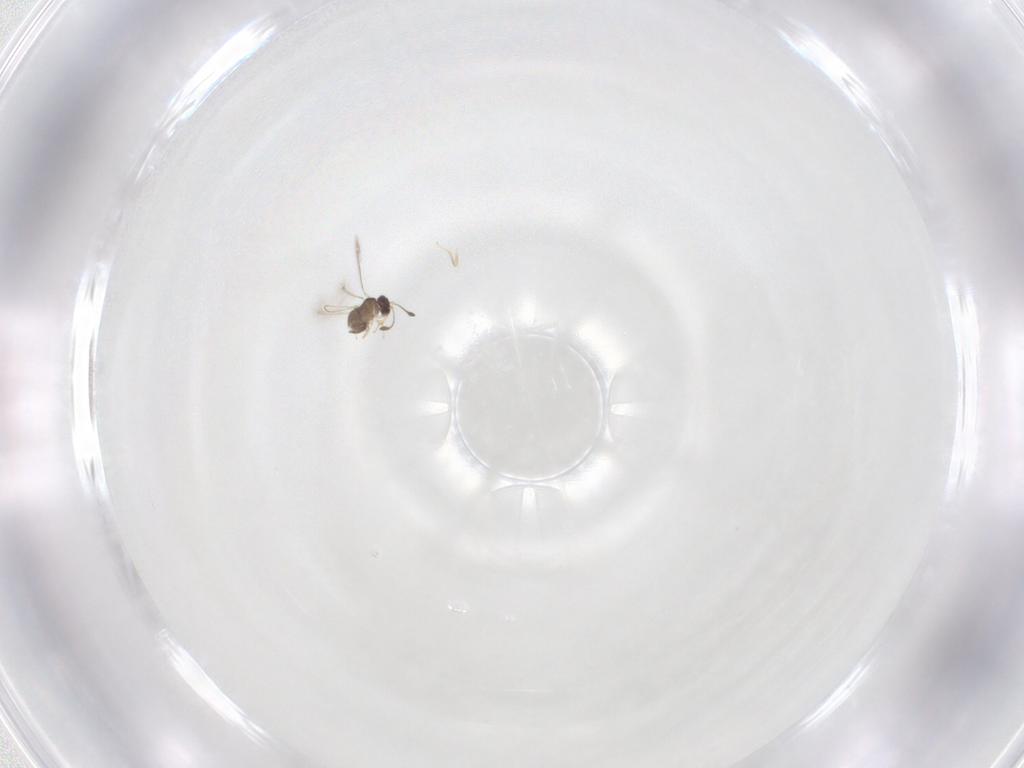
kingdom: Animalia
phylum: Arthropoda
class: Insecta
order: Hymenoptera
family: Mymaridae
